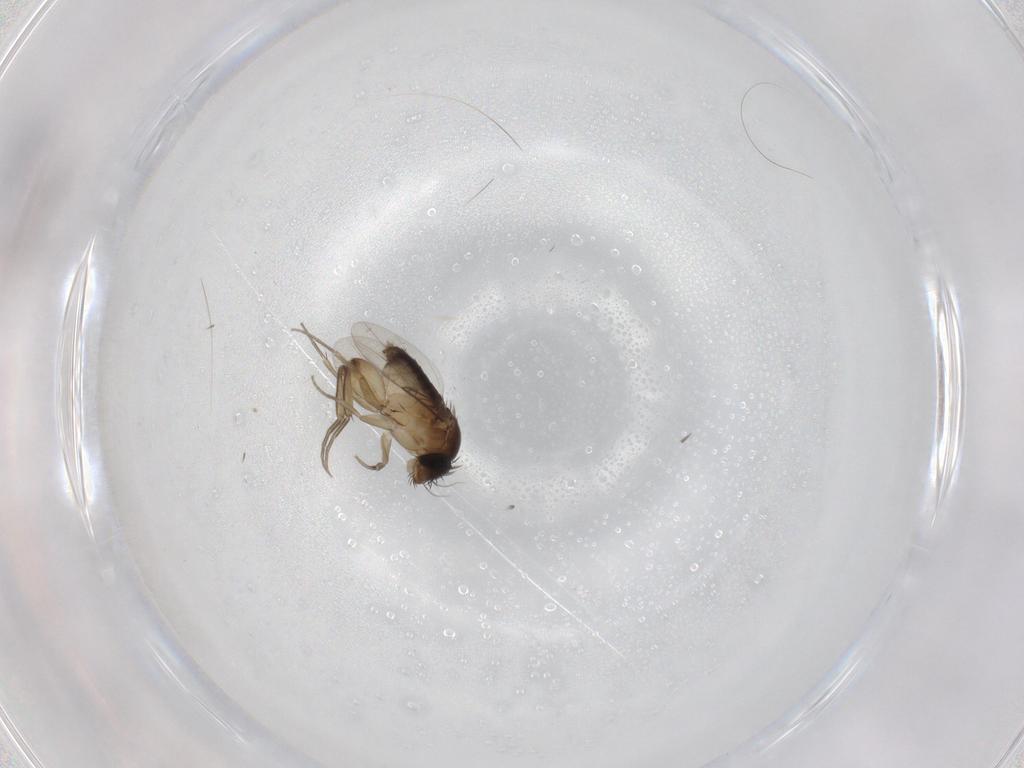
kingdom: Animalia
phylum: Arthropoda
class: Insecta
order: Diptera
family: Phoridae
